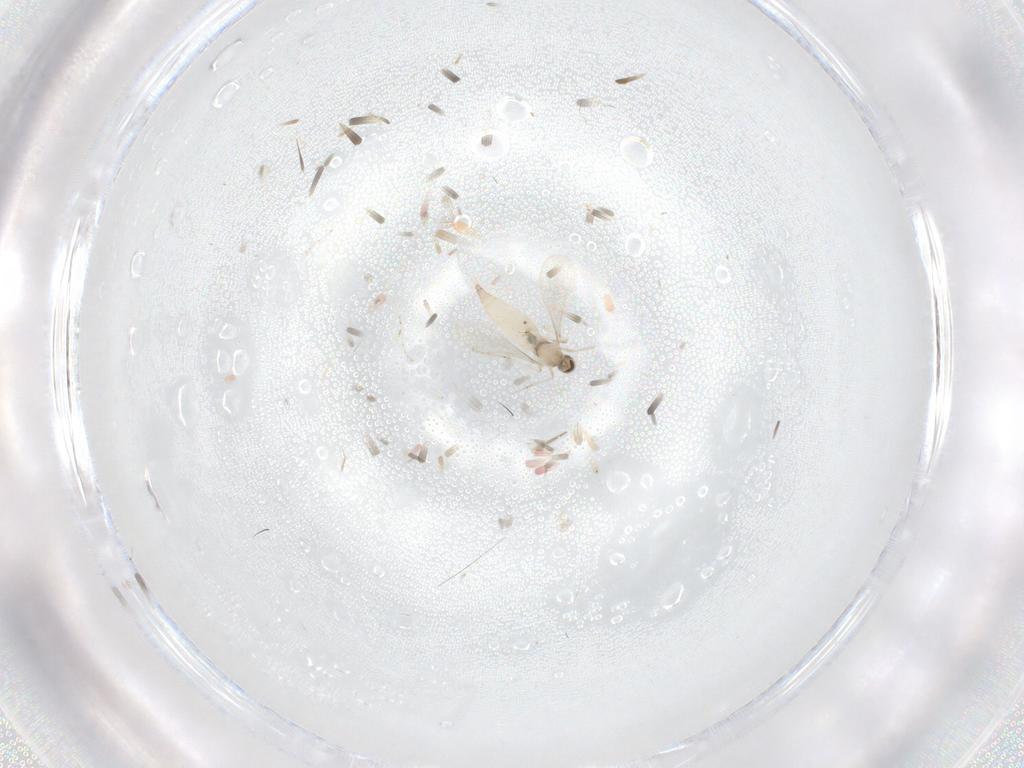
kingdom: Animalia
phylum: Arthropoda
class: Insecta
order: Diptera
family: Cecidomyiidae
